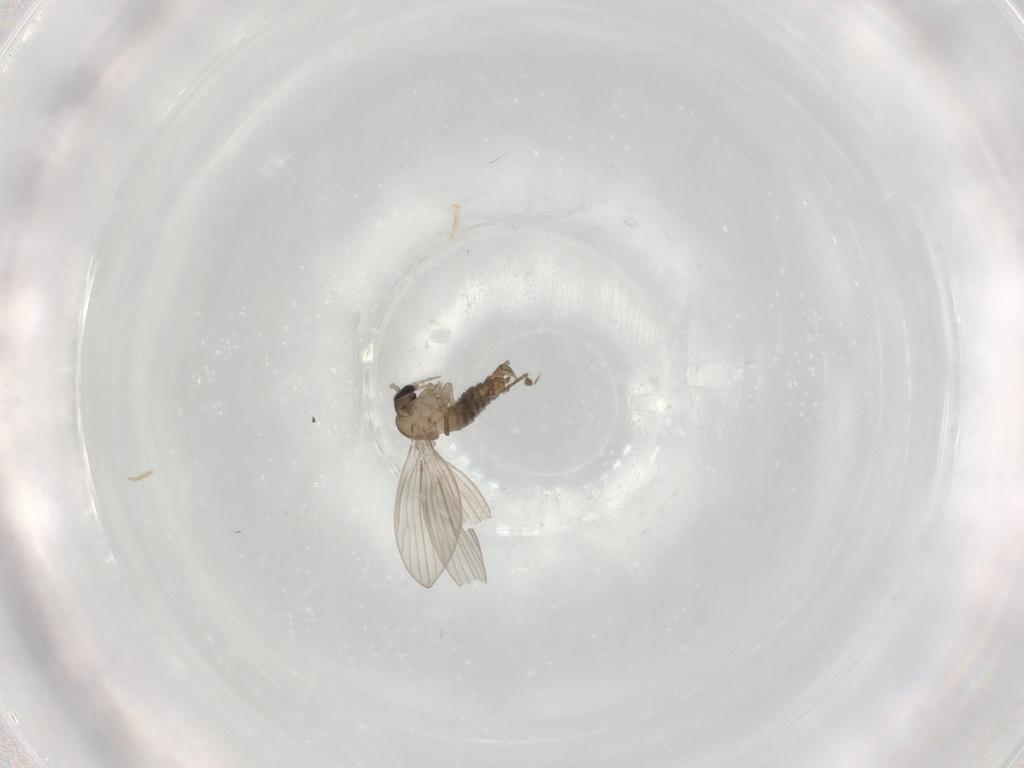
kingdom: Animalia
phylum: Arthropoda
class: Insecta
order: Diptera
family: Psychodidae
